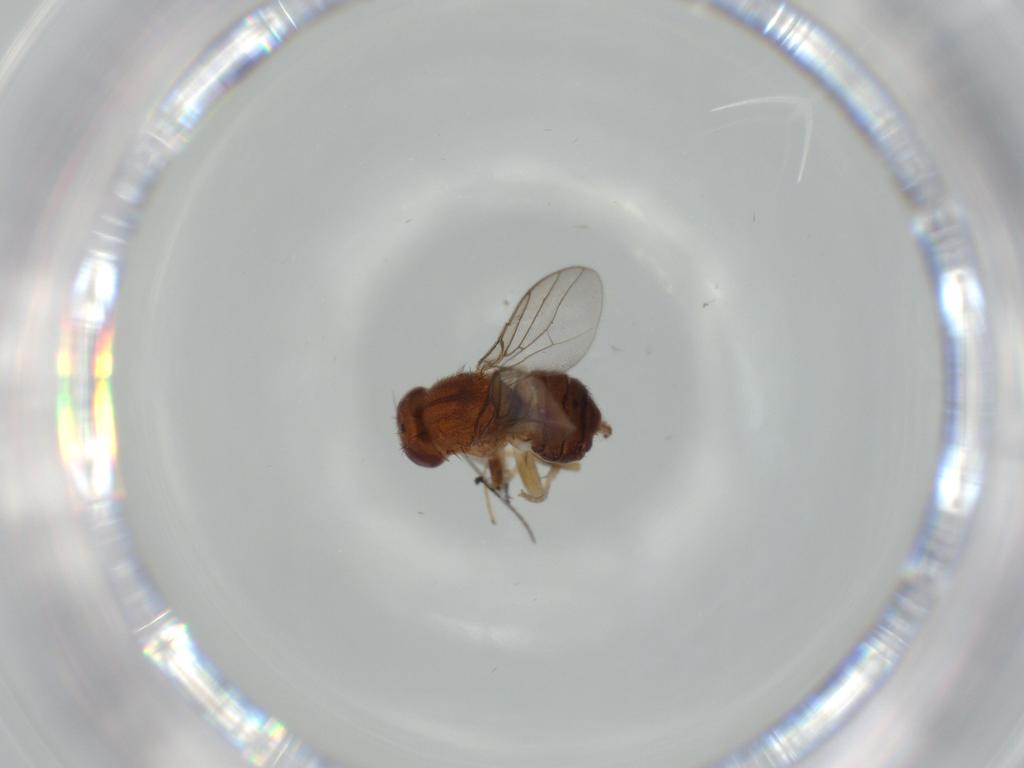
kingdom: Animalia
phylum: Arthropoda
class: Insecta
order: Diptera
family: Chloropidae
